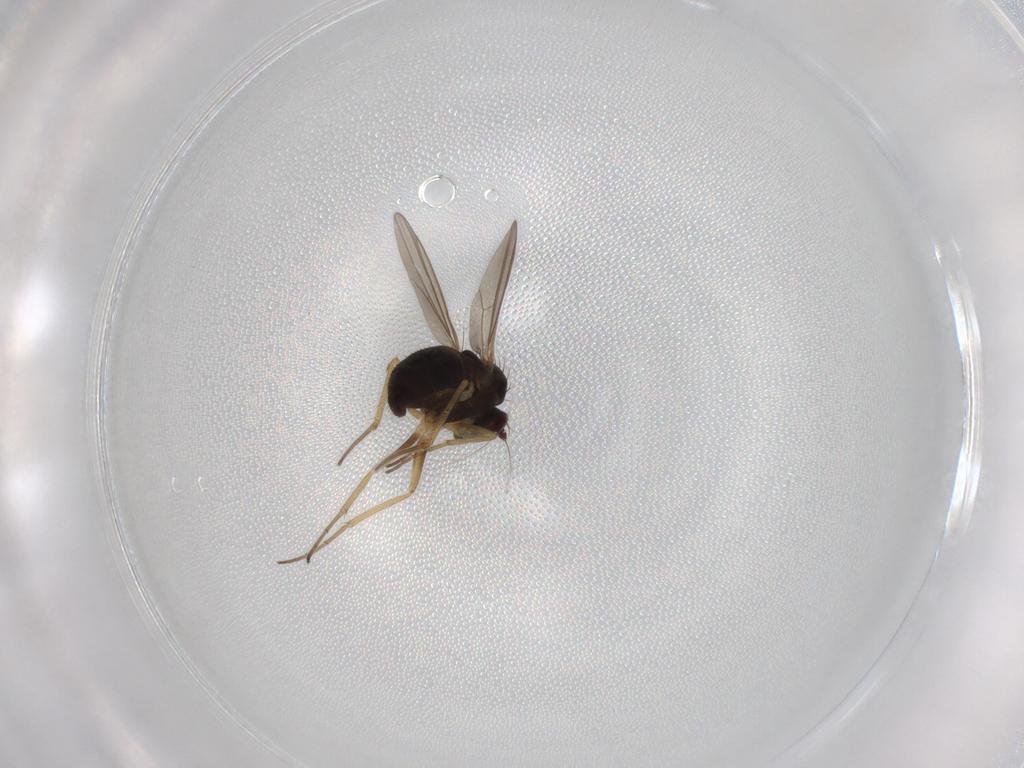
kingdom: Animalia
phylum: Arthropoda
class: Insecta
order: Diptera
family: Dolichopodidae
